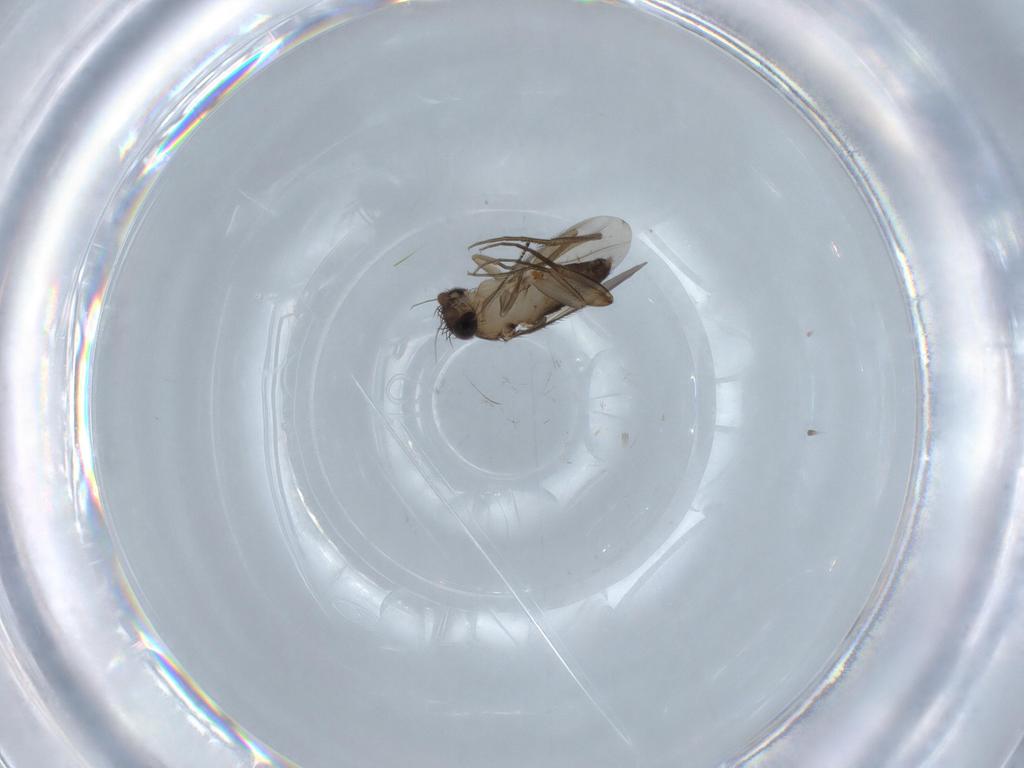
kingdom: Animalia
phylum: Arthropoda
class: Insecta
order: Diptera
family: Phoridae
